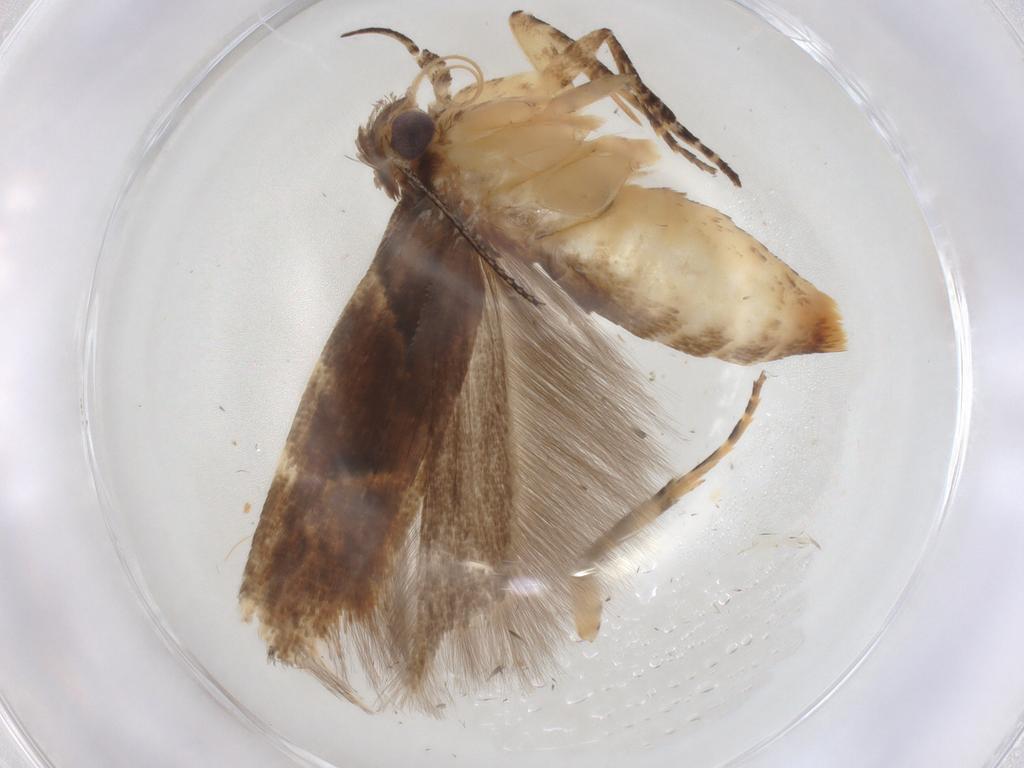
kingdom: Animalia
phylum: Arthropoda
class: Insecta
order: Lepidoptera
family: Gelechiidae
